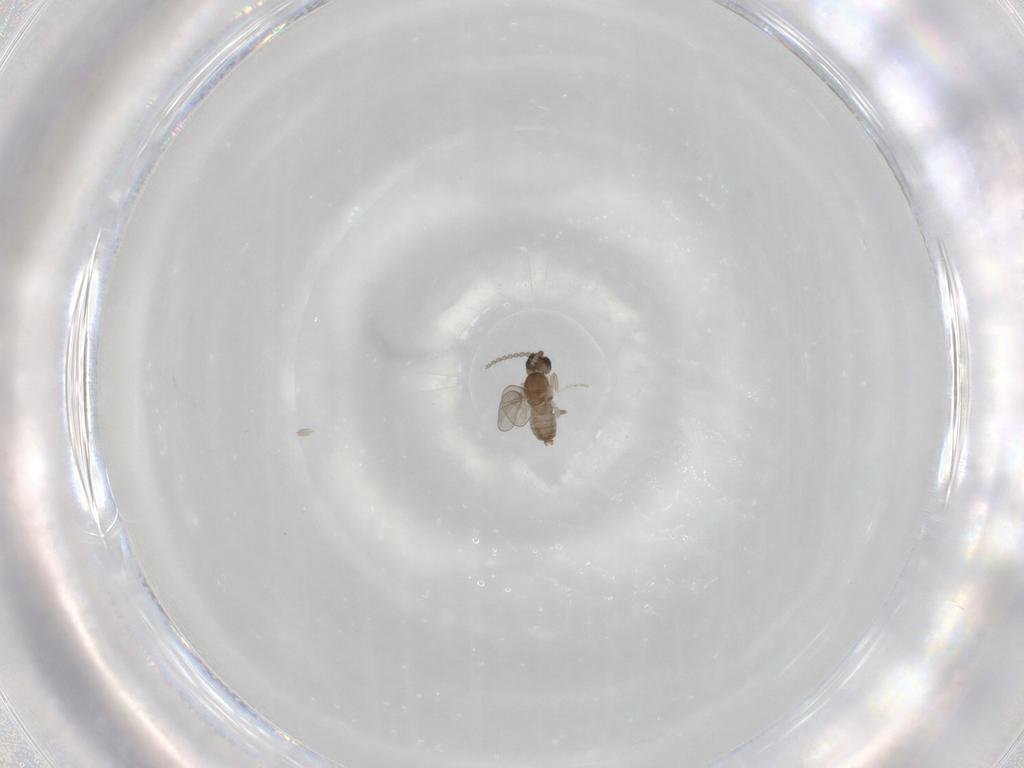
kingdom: Animalia
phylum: Arthropoda
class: Insecta
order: Diptera
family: Cecidomyiidae
